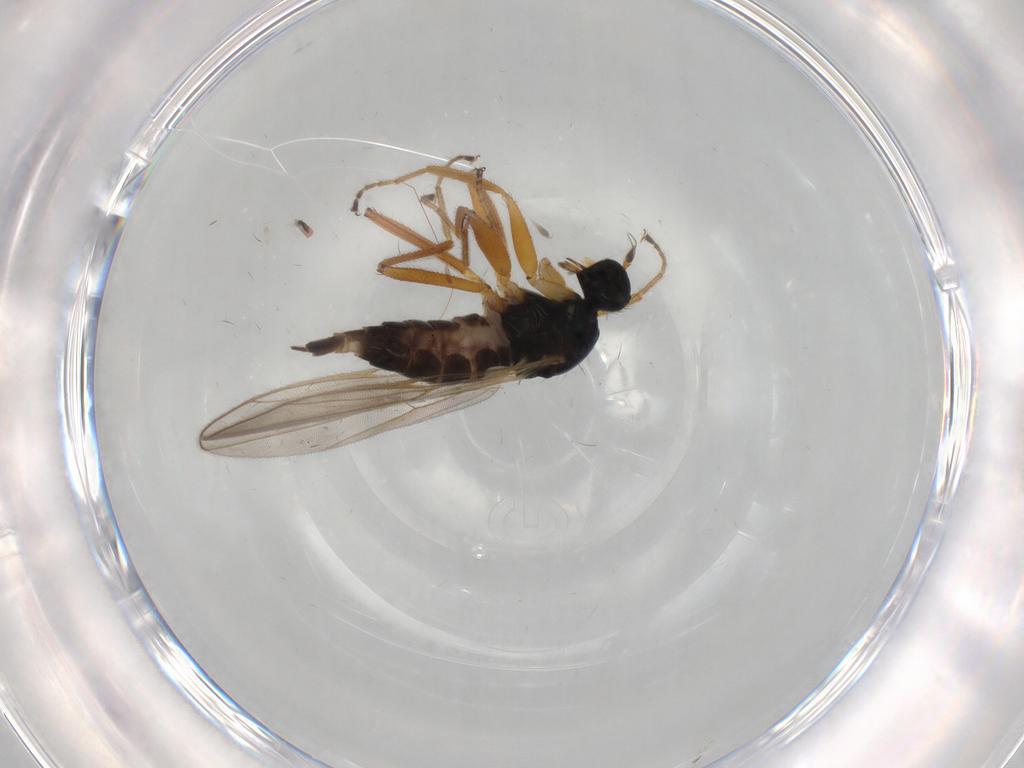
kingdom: Animalia
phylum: Arthropoda
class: Insecta
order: Diptera
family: Hybotidae
